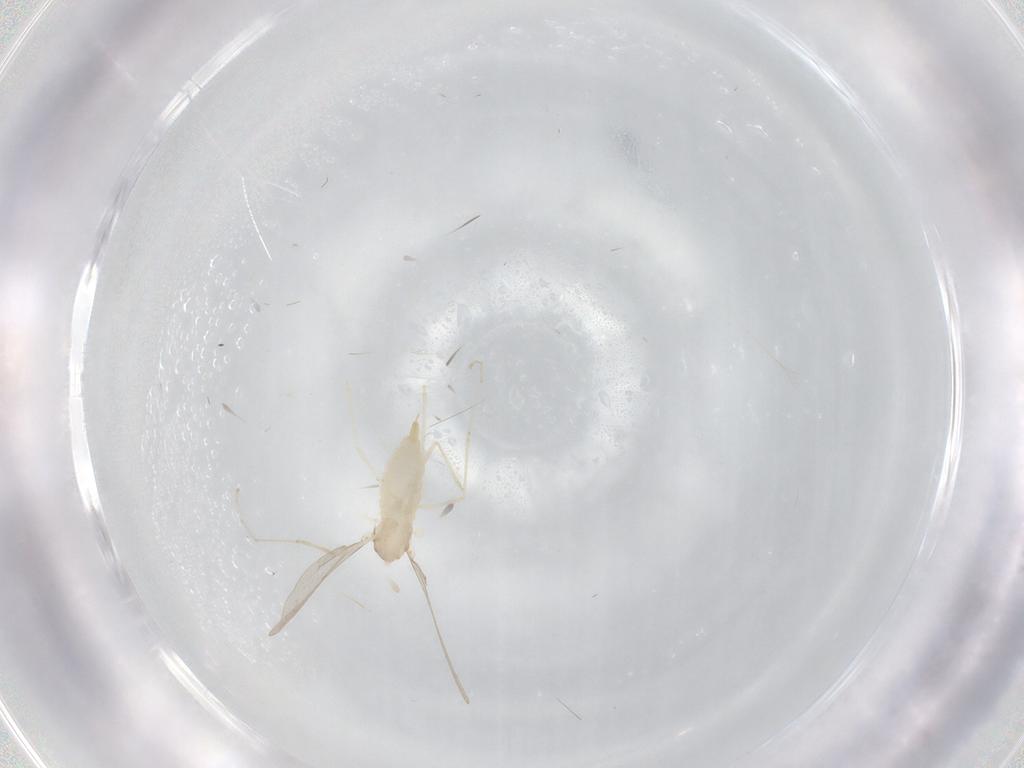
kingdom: Animalia
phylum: Arthropoda
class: Insecta
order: Diptera
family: Cecidomyiidae
